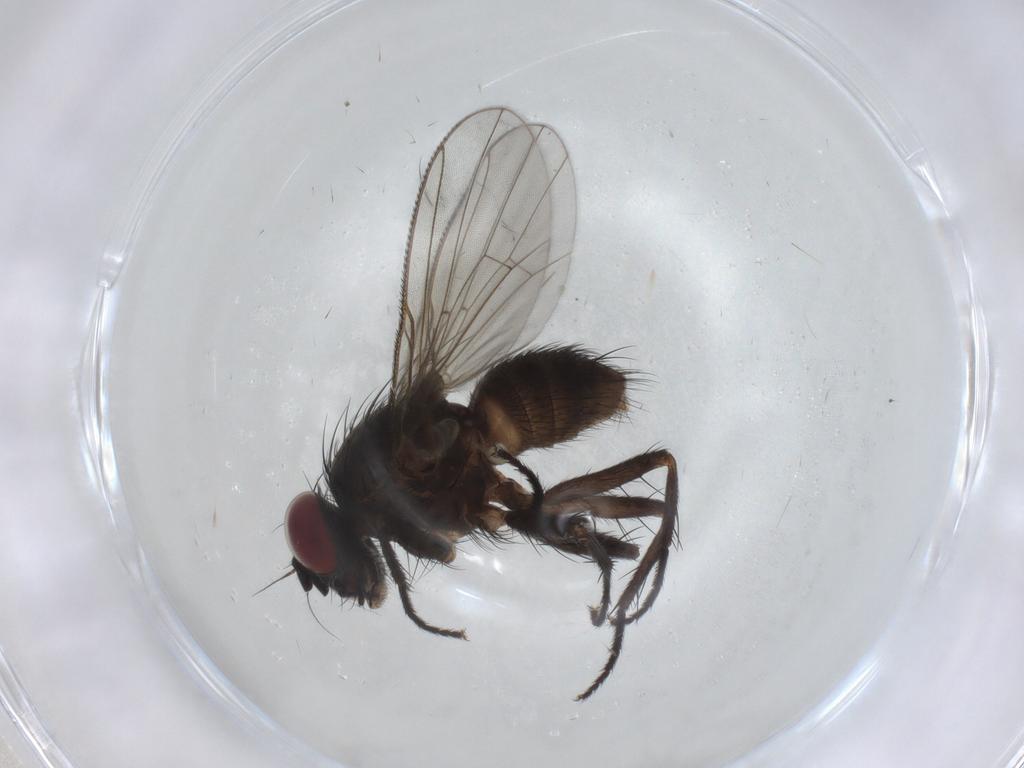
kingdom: Animalia
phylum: Arthropoda
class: Insecta
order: Diptera
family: Muscidae
